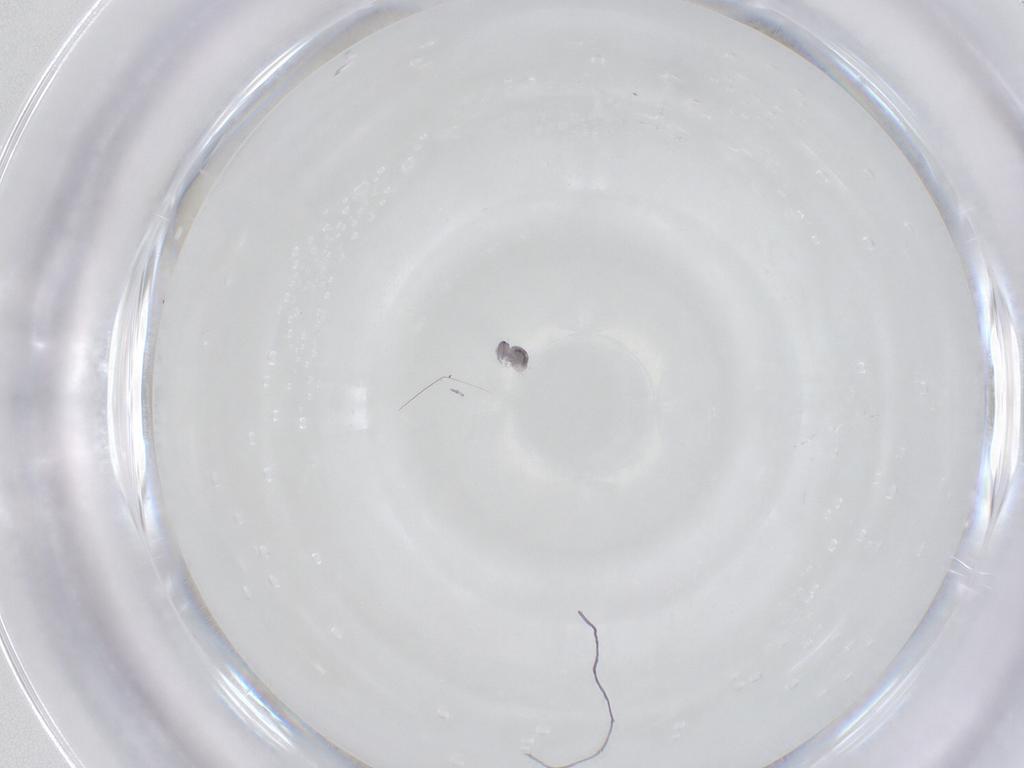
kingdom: Animalia
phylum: Arthropoda
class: Collembola
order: Symphypleona
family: Sminthurididae
